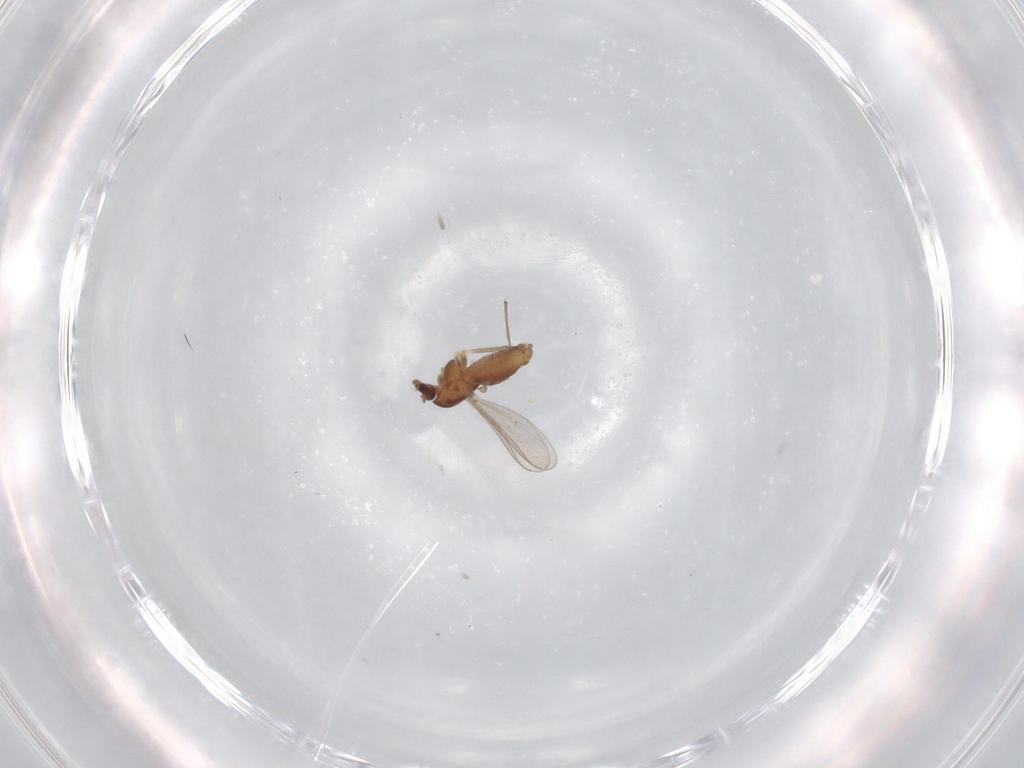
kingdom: Animalia
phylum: Arthropoda
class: Insecta
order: Diptera
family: Chironomidae
